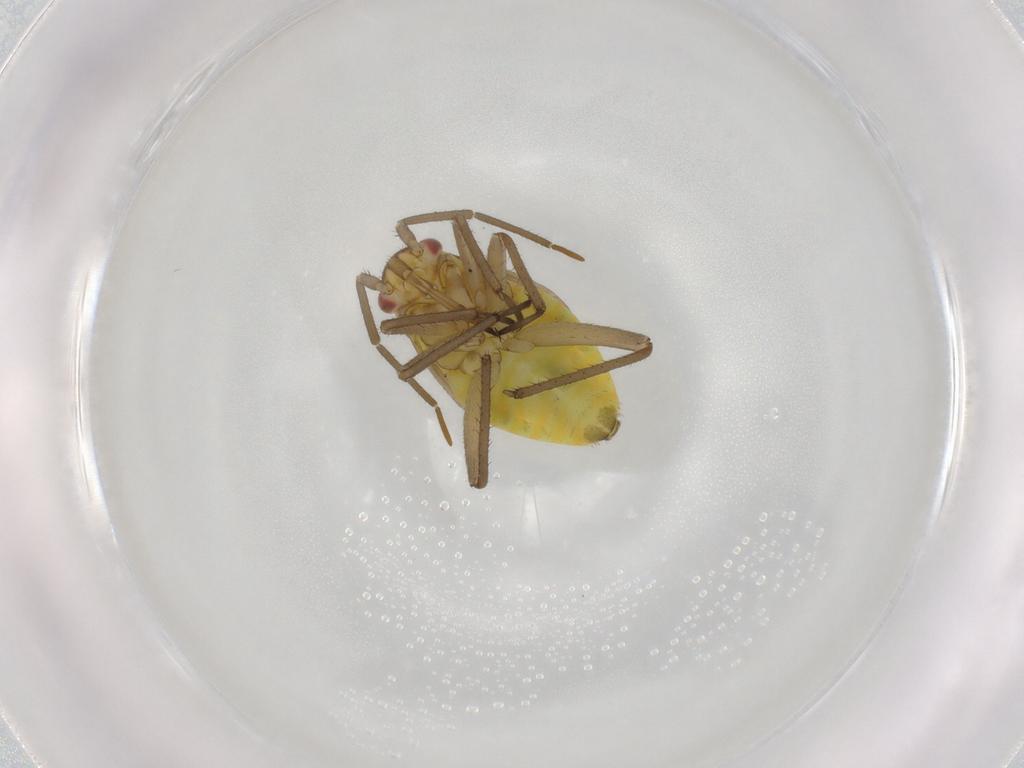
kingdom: Animalia
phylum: Arthropoda
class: Insecta
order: Hemiptera
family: Miridae
